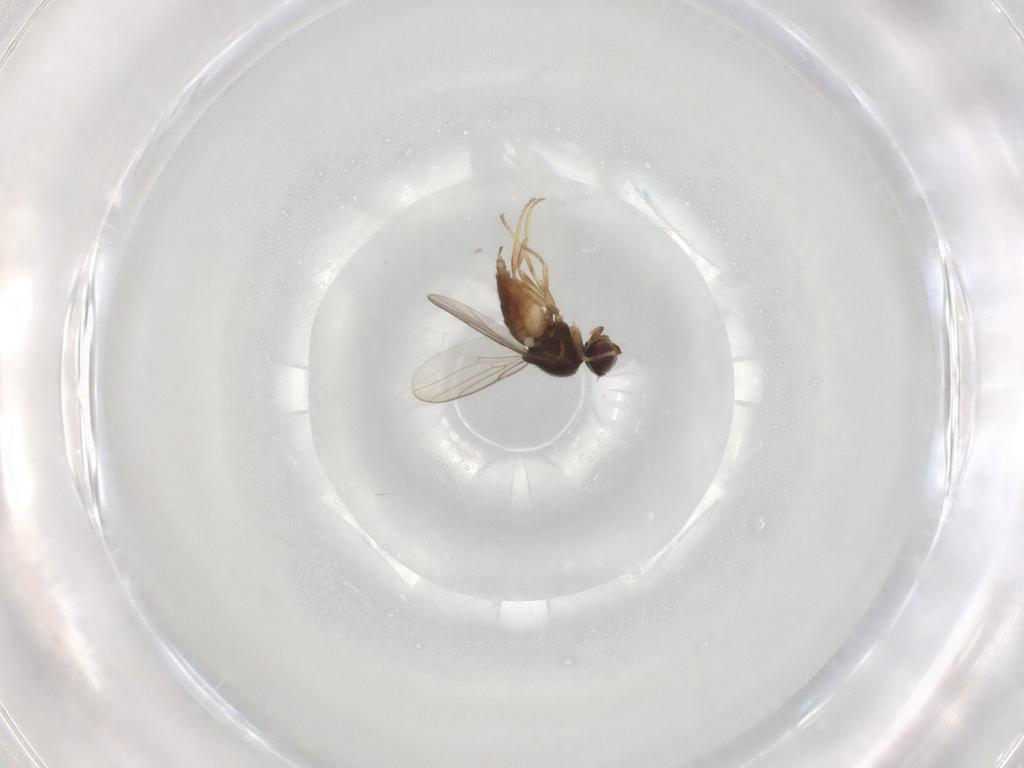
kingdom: Animalia
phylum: Arthropoda
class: Insecta
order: Diptera
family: Chloropidae
